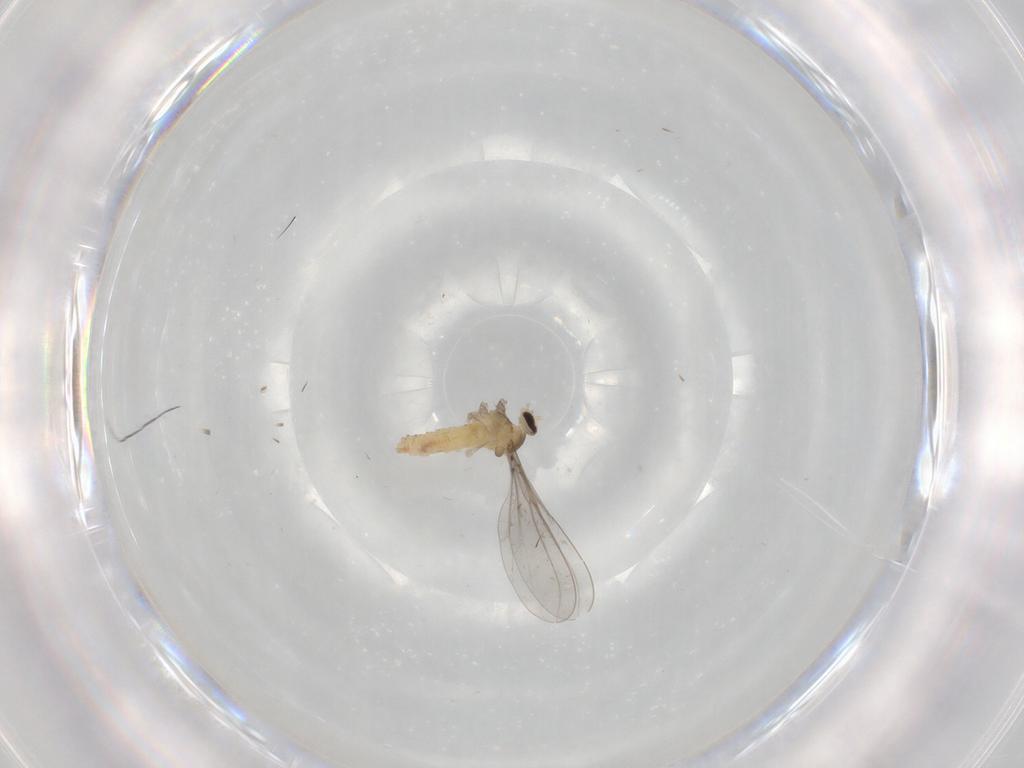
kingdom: Animalia
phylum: Arthropoda
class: Insecta
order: Diptera
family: Cecidomyiidae
